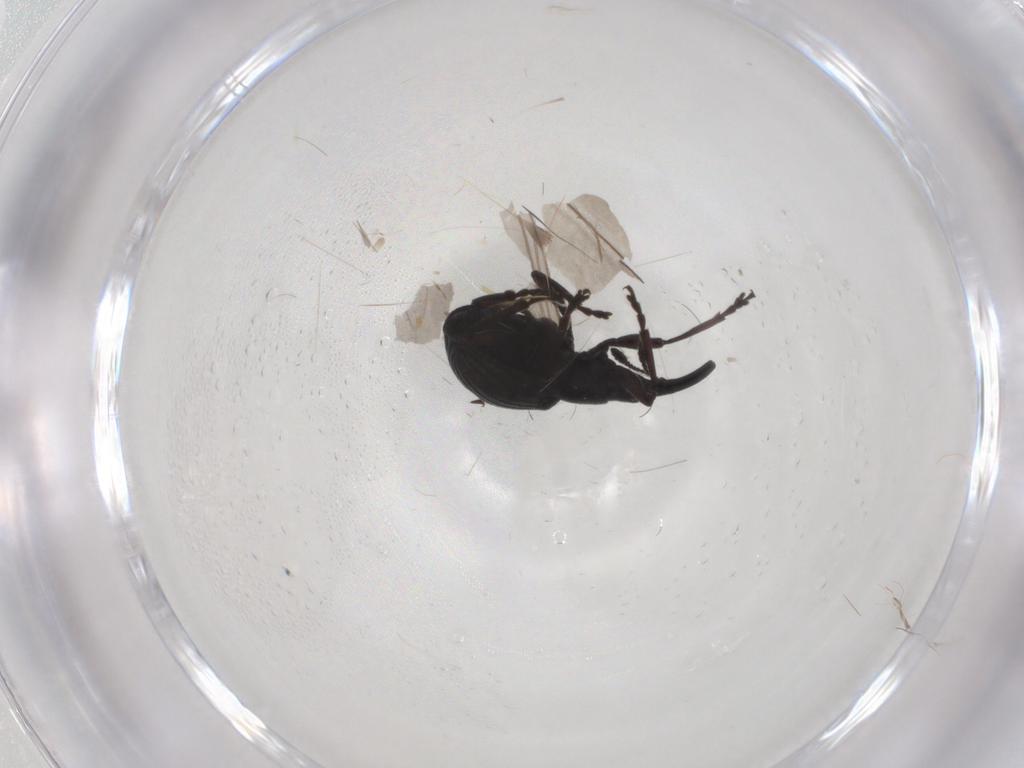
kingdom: Animalia
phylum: Arthropoda
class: Insecta
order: Coleoptera
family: Brentidae
